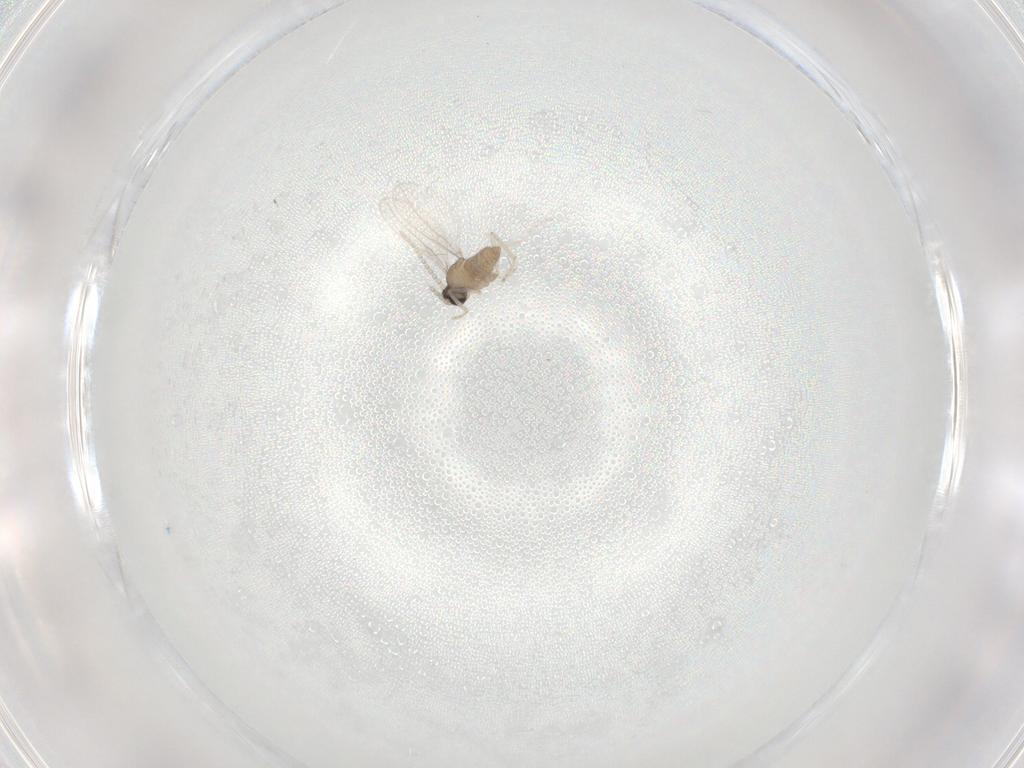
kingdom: Animalia
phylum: Arthropoda
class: Insecta
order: Diptera
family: Cecidomyiidae
